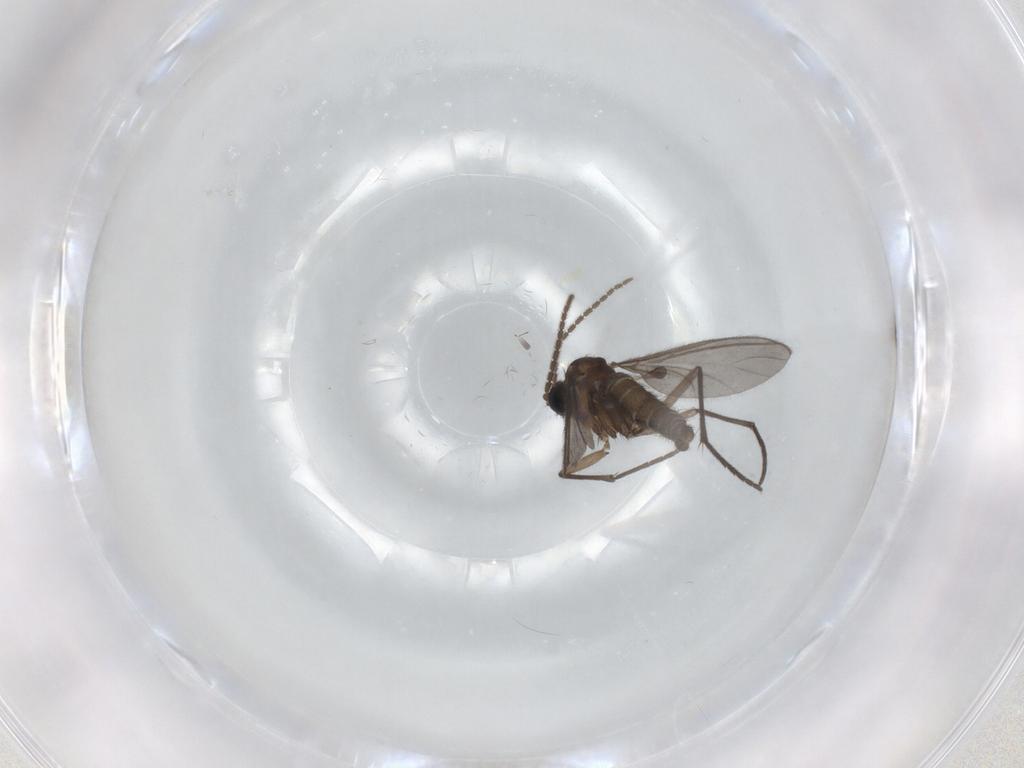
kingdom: Animalia
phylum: Arthropoda
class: Insecta
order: Diptera
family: Sciaridae
